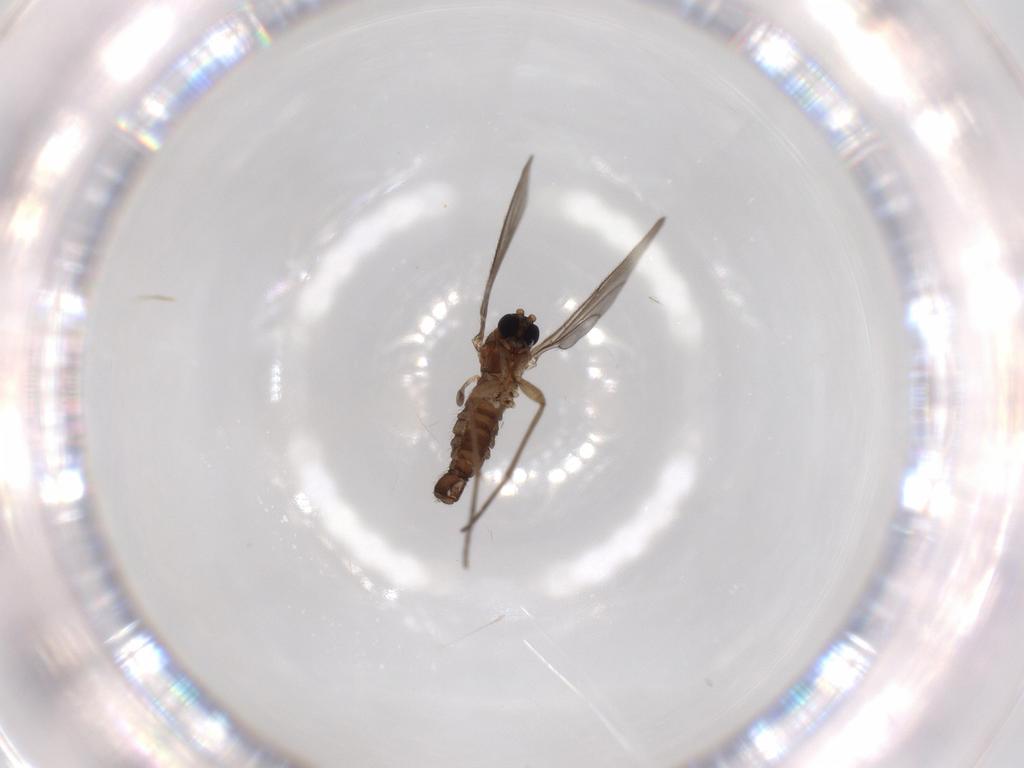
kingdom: Animalia
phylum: Arthropoda
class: Insecta
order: Diptera
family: Sciaridae
